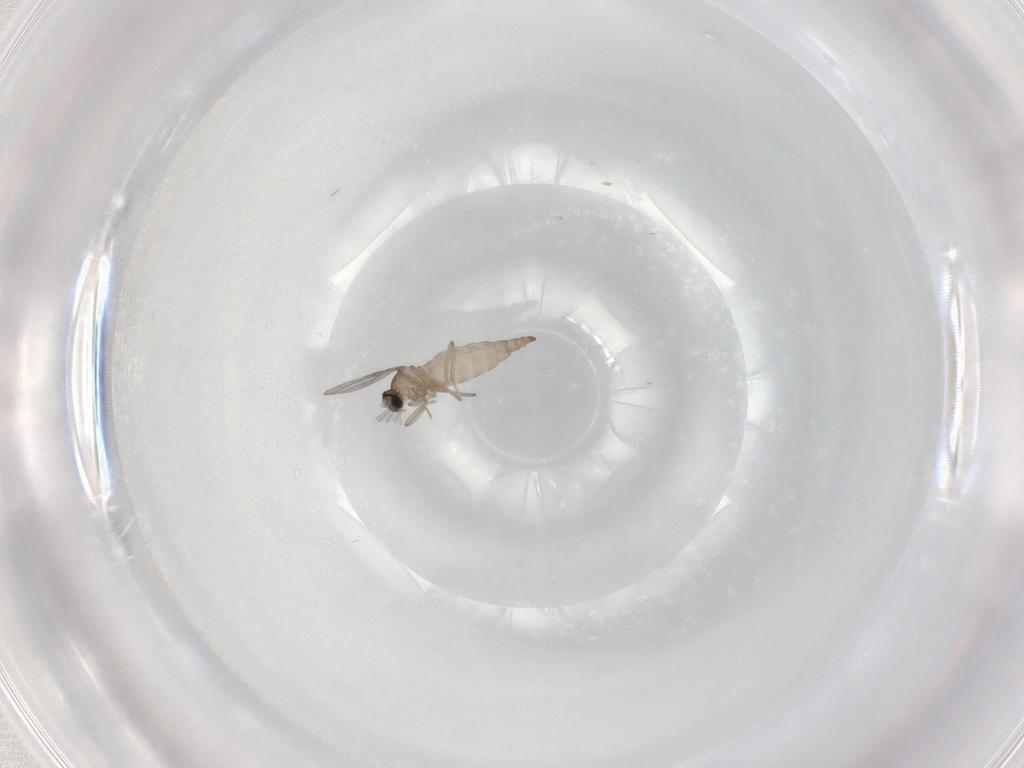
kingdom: Animalia
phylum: Arthropoda
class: Insecta
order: Diptera
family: Cecidomyiidae
